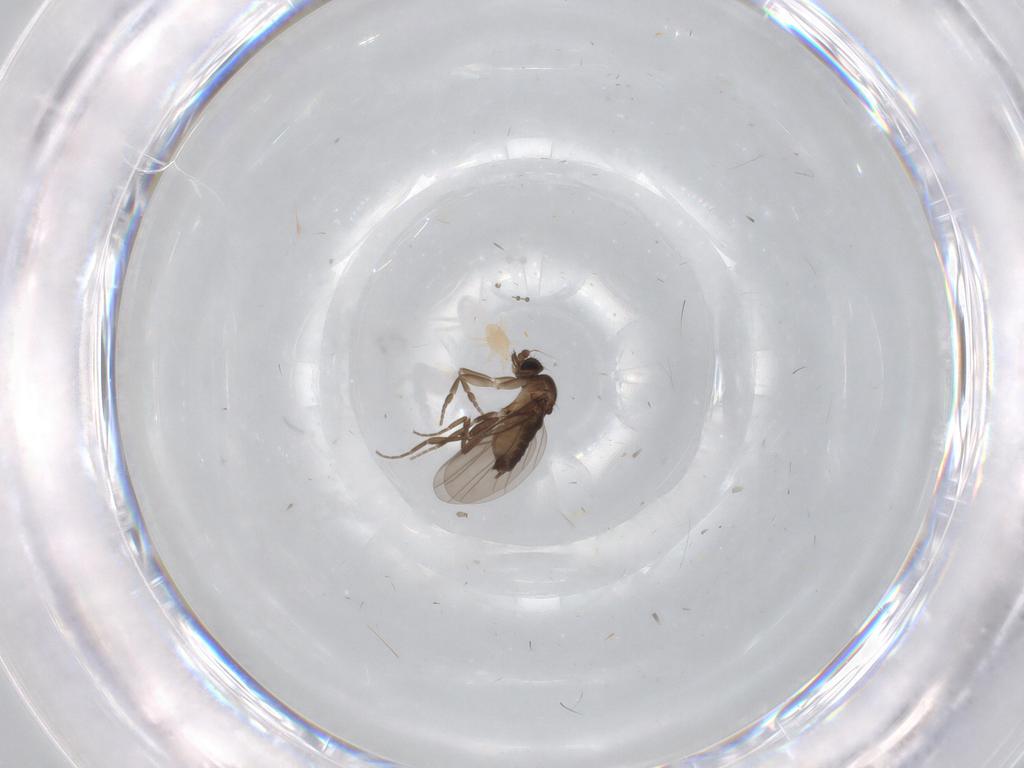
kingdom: Animalia
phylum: Arthropoda
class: Insecta
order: Diptera
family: Phoridae
